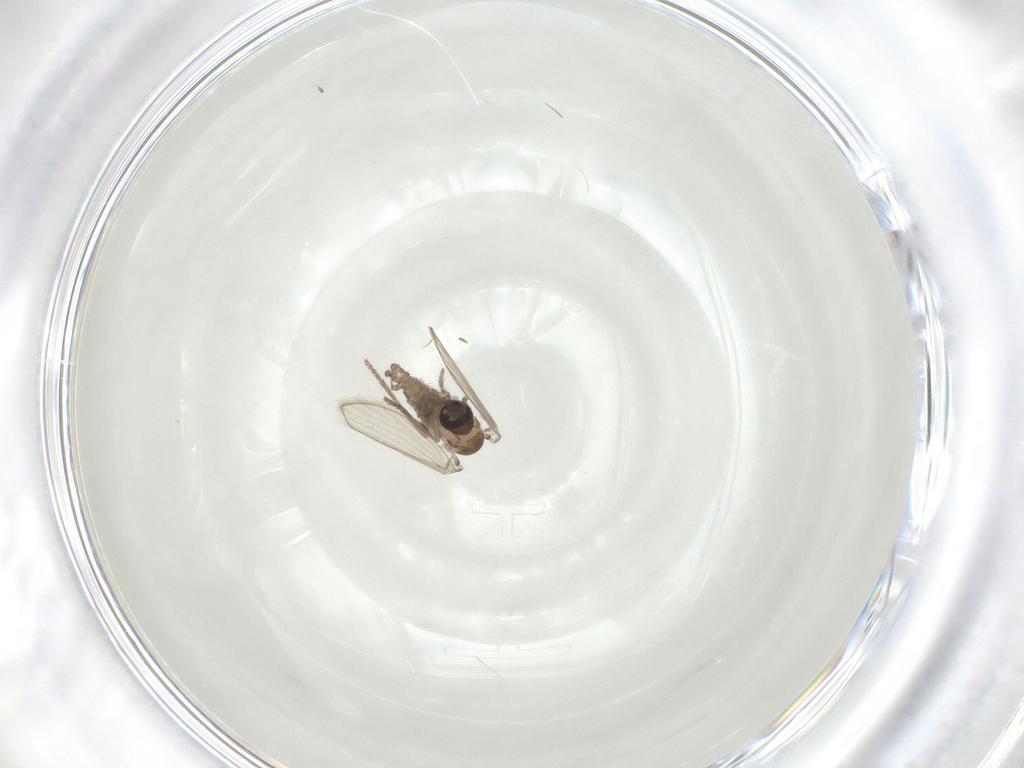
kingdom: Animalia
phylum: Arthropoda
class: Insecta
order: Diptera
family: Psychodidae
